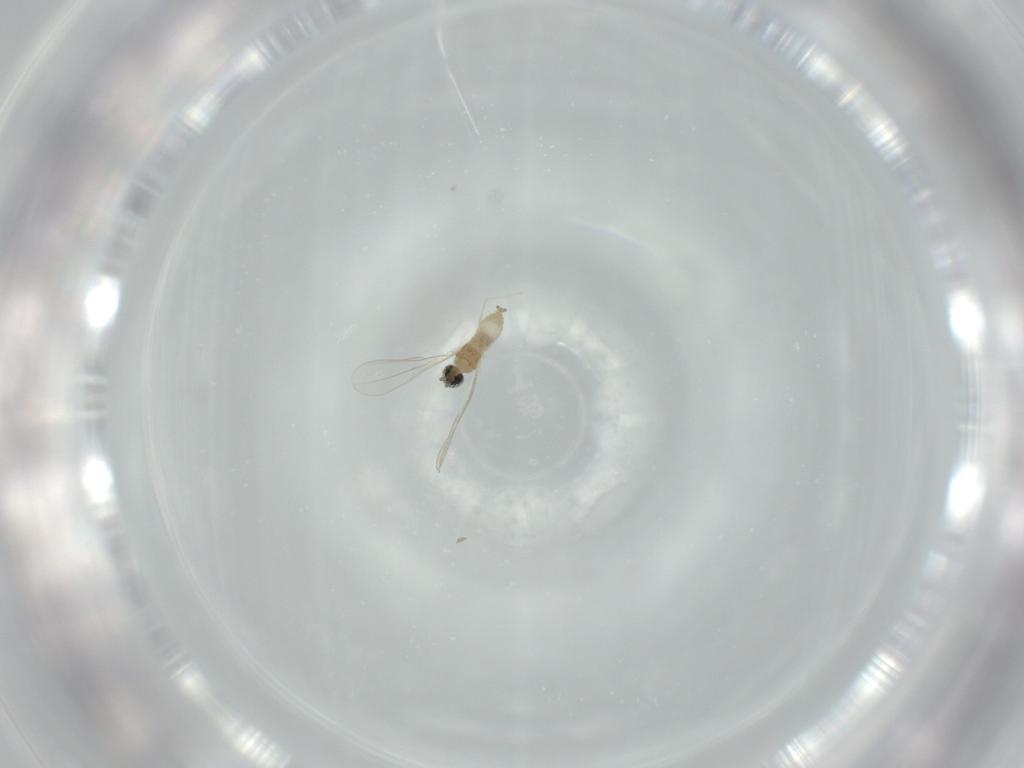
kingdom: Animalia
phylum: Arthropoda
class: Insecta
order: Diptera
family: Cecidomyiidae
